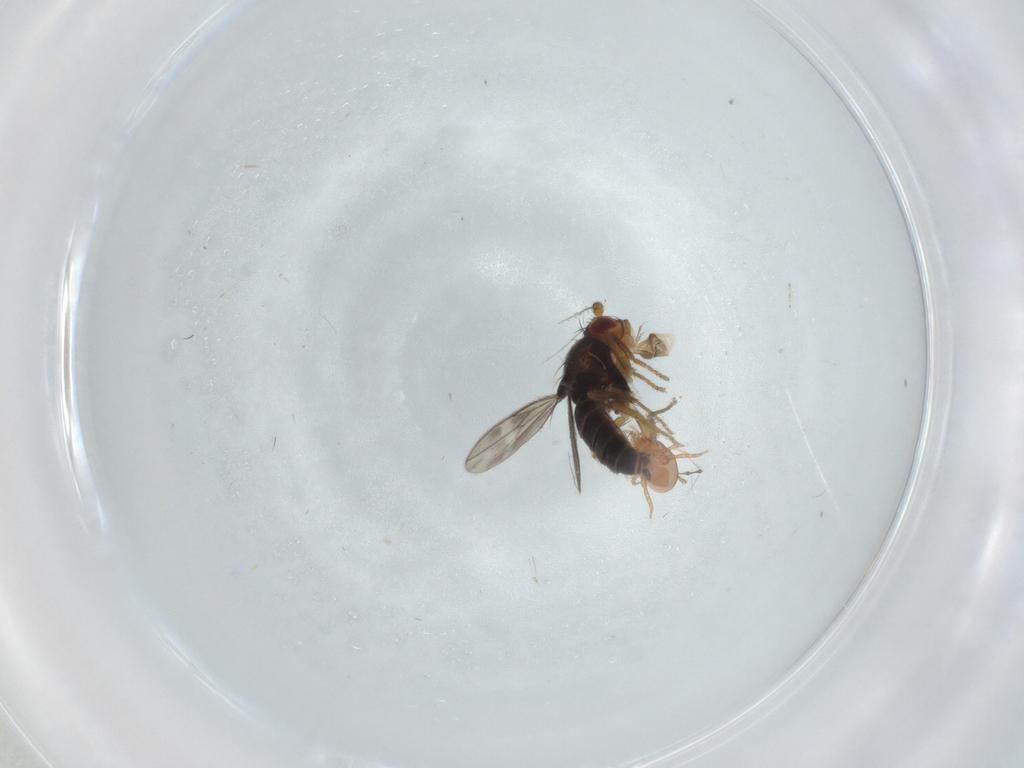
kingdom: Animalia
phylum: Arthropoda
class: Insecta
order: Diptera
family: Sphaeroceridae
